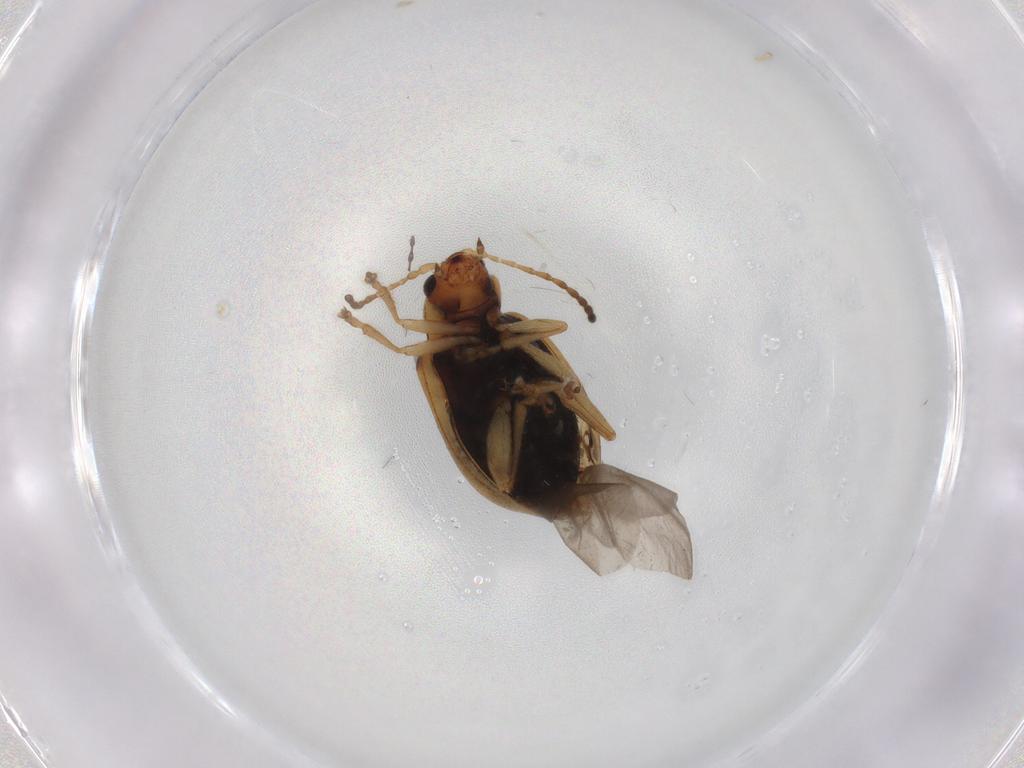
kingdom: Animalia
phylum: Arthropoda
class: Insecta
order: Coleoptera
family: Chrysomelidae
